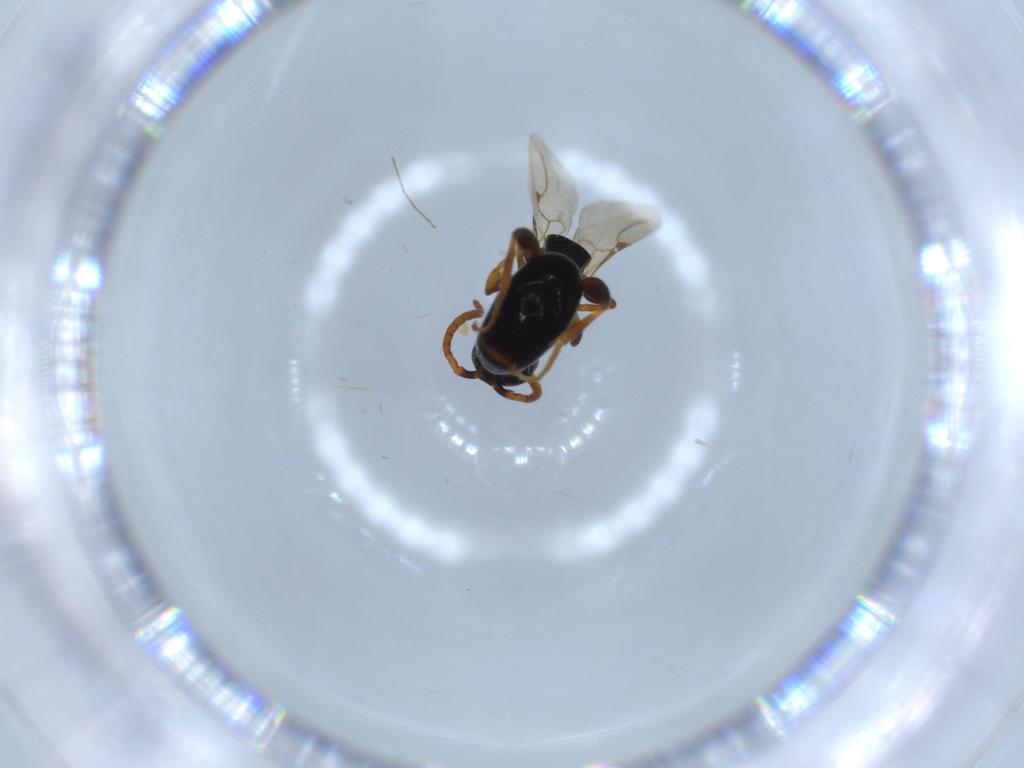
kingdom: Animalia
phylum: Arthropoda
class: Insecta
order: Hymenoptera
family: Bethylidae
